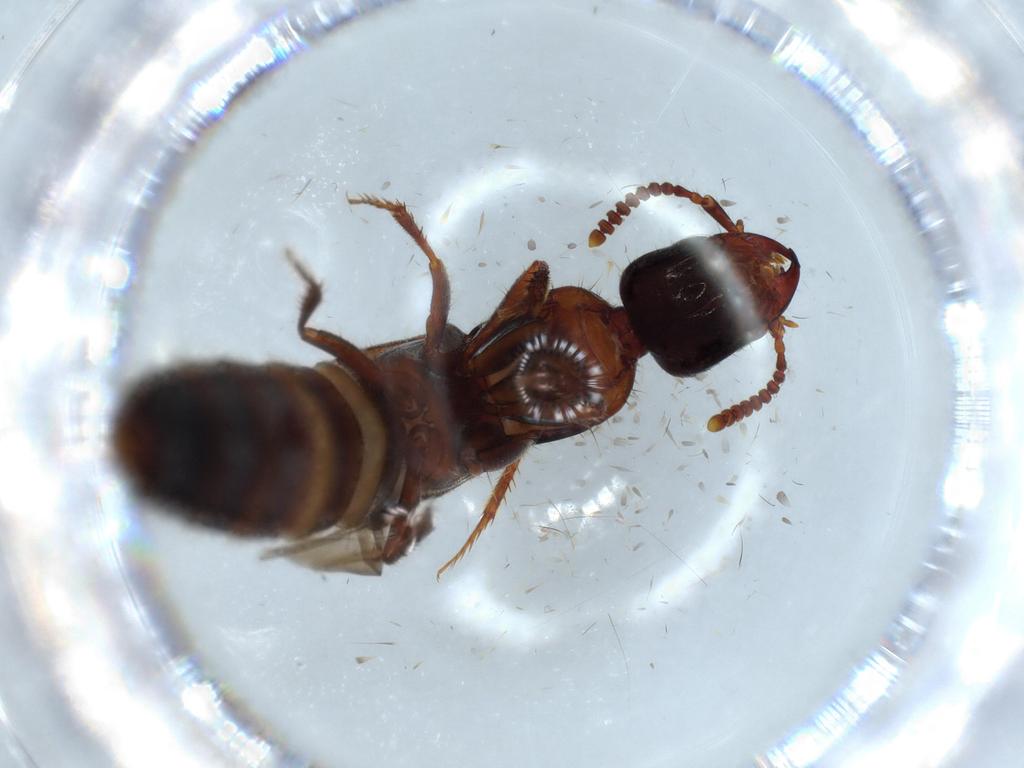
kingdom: Animalia
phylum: Arthropoda
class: Insecta
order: Coleoptera
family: Staphylinidae
